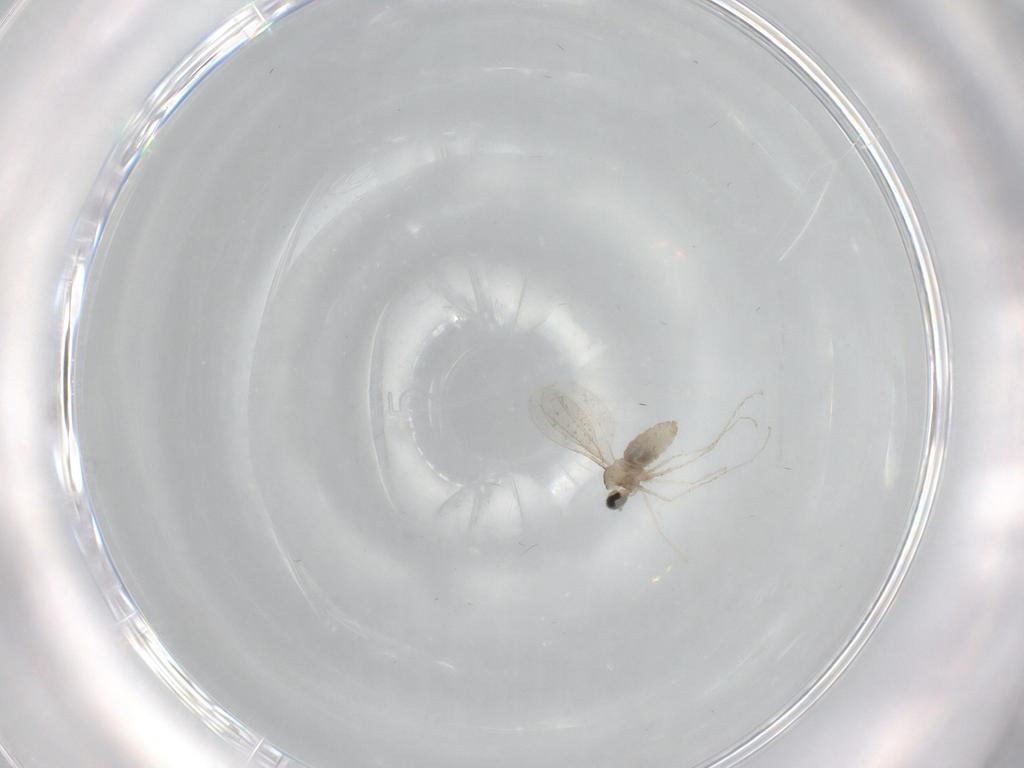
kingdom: Animalia
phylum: Arthropoda
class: Insecta
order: Diptera
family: Cecidomyiidae
